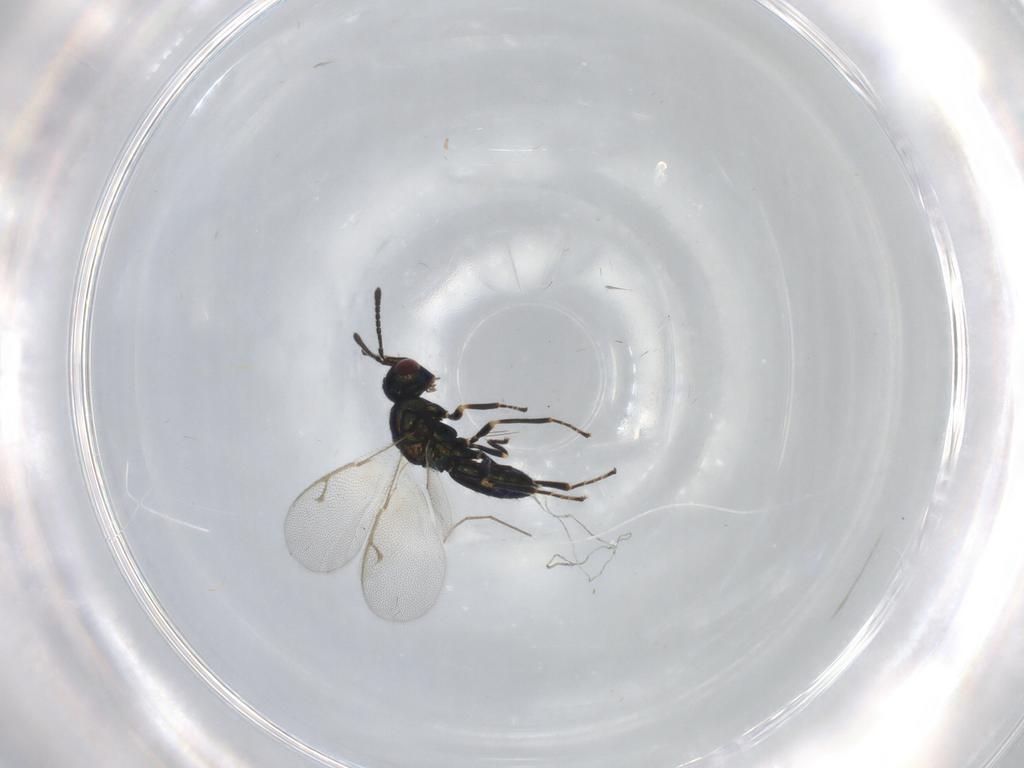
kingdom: Animalia
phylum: Arthropoda
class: Insecta
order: Hymenoptera
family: Pteromalidae
